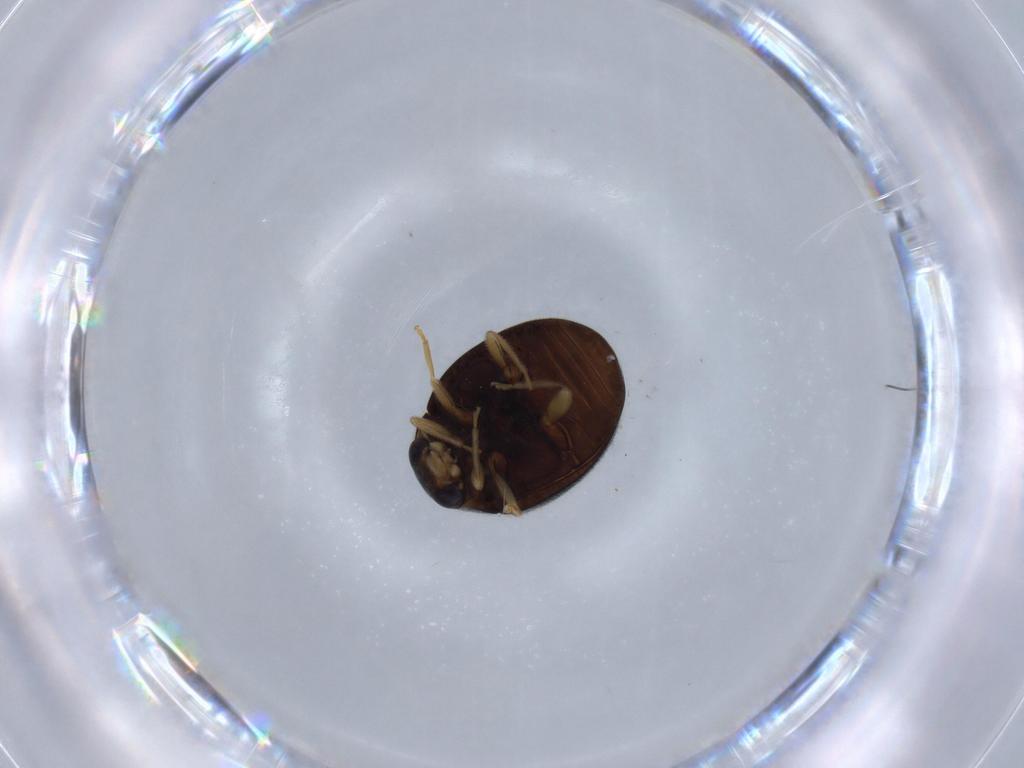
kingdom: Animalia
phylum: Arthropoda
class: Insecta
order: Coleoptera
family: Coccinellidae
